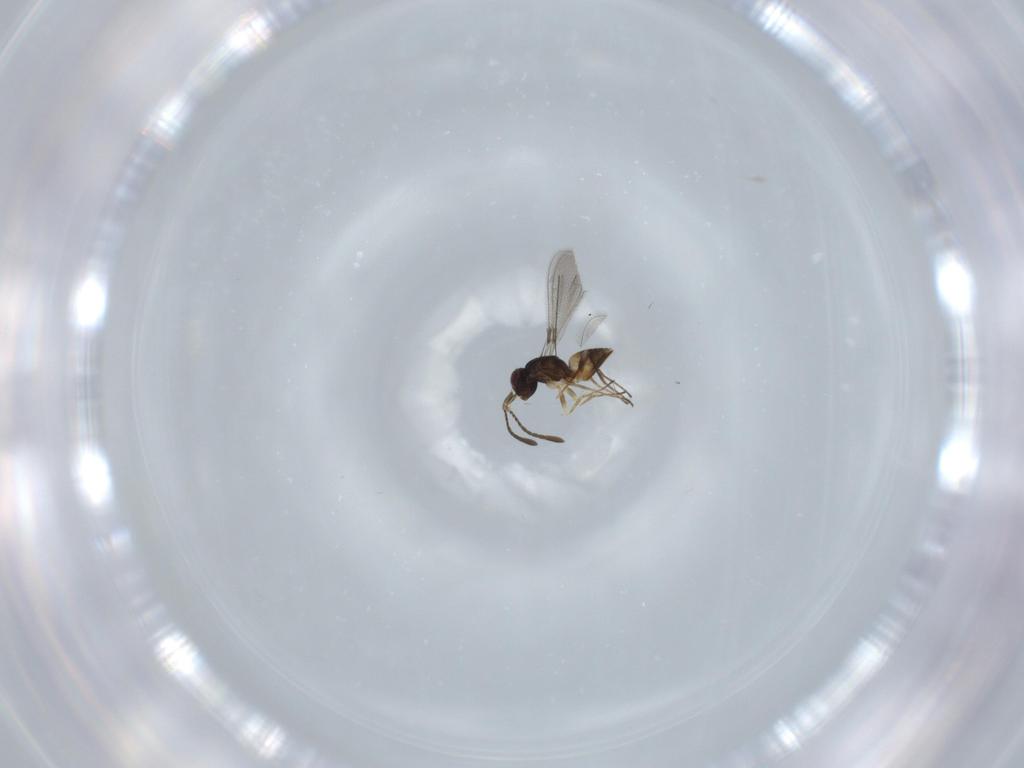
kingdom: Animalia
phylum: Arthropoda
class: Insecta
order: Hymenoptera
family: Mymaridae
